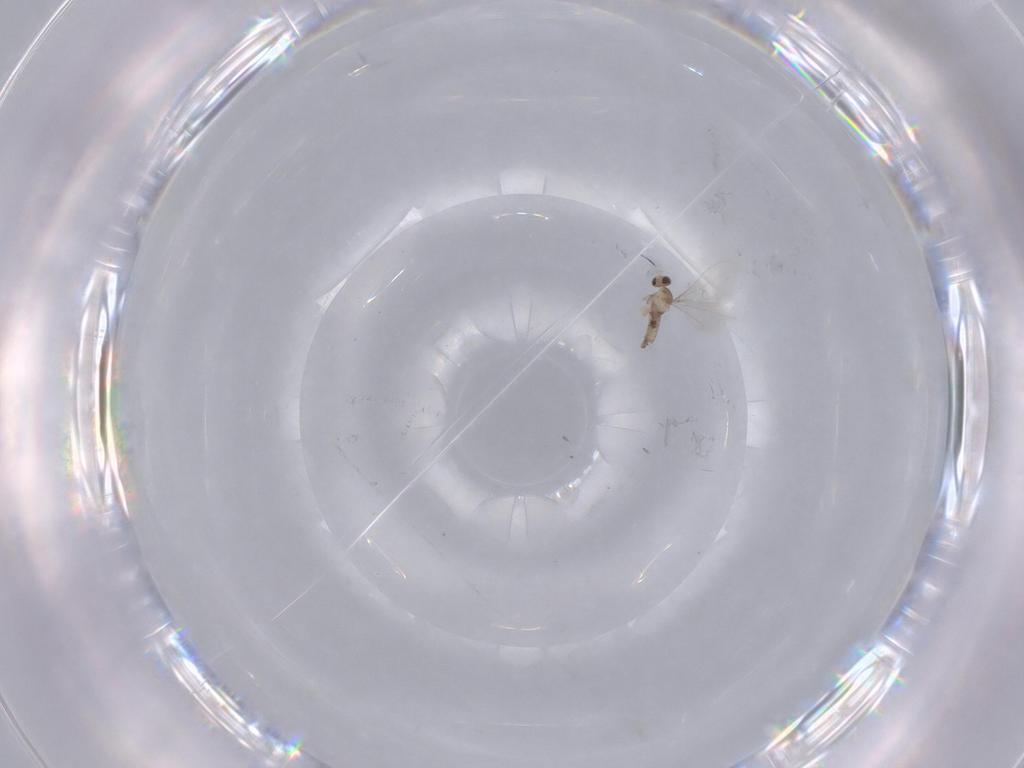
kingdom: Animalia
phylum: Arthropoda
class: Insecta
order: Diptera
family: Cecidomyiidae
